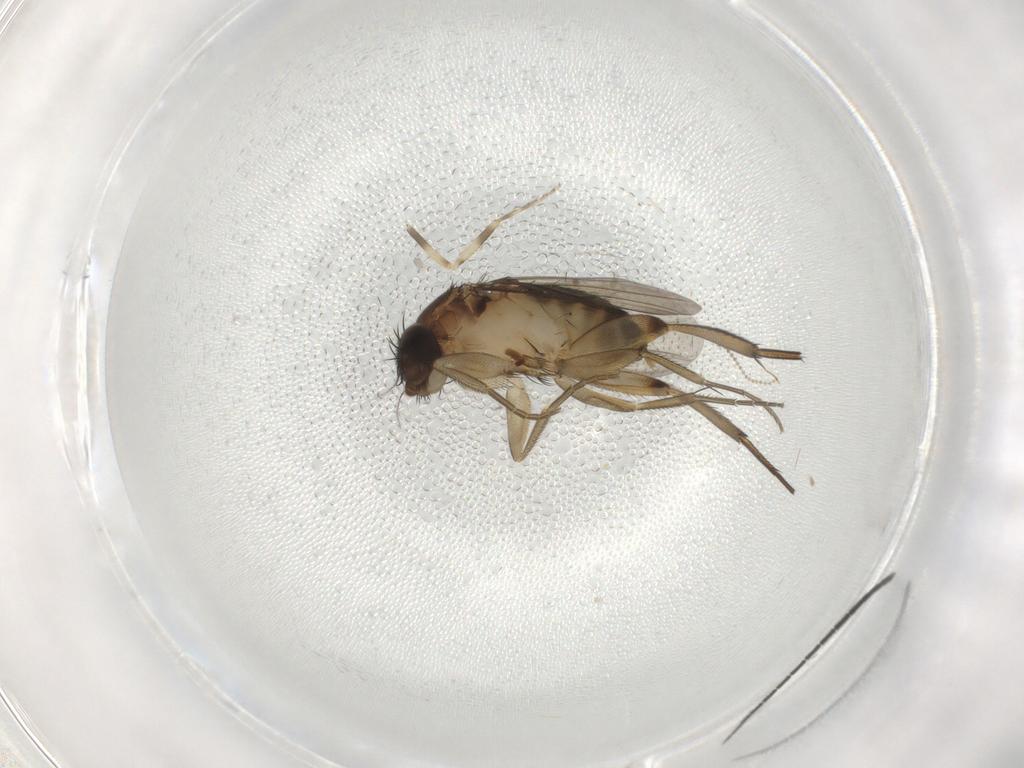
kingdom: Animalia
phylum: Arthropoda
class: Insecta
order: Diptera
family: Phoridae
